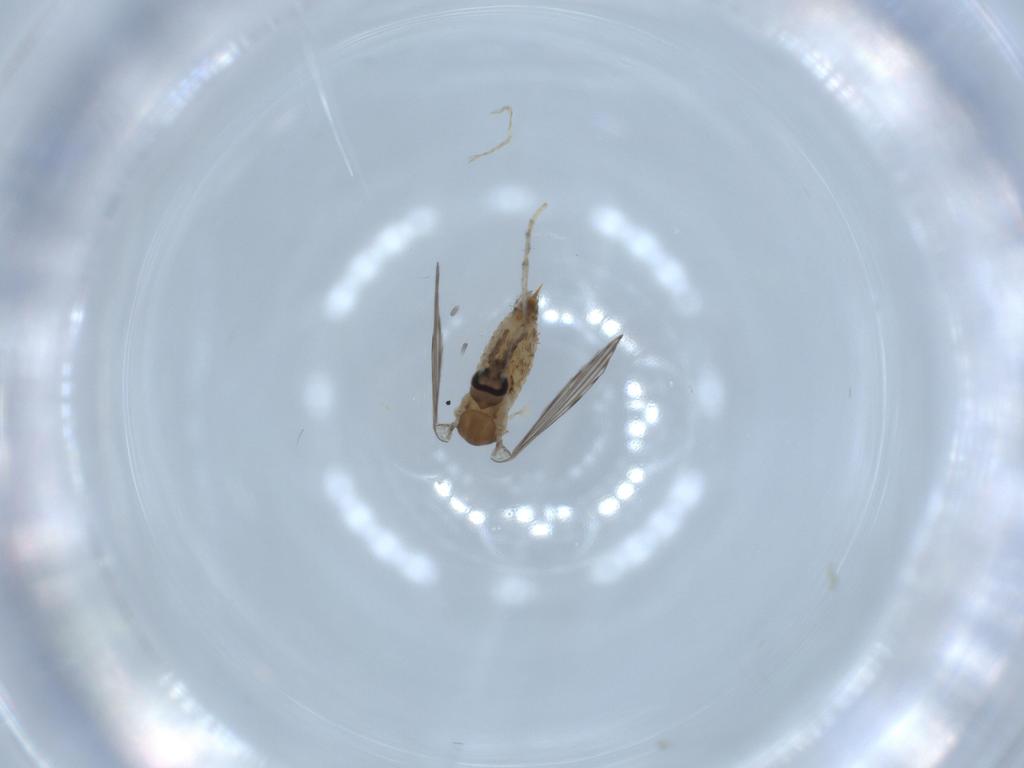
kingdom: Animalia
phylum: Arthropoda
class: Insecta
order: Diptera
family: Psychodidae
